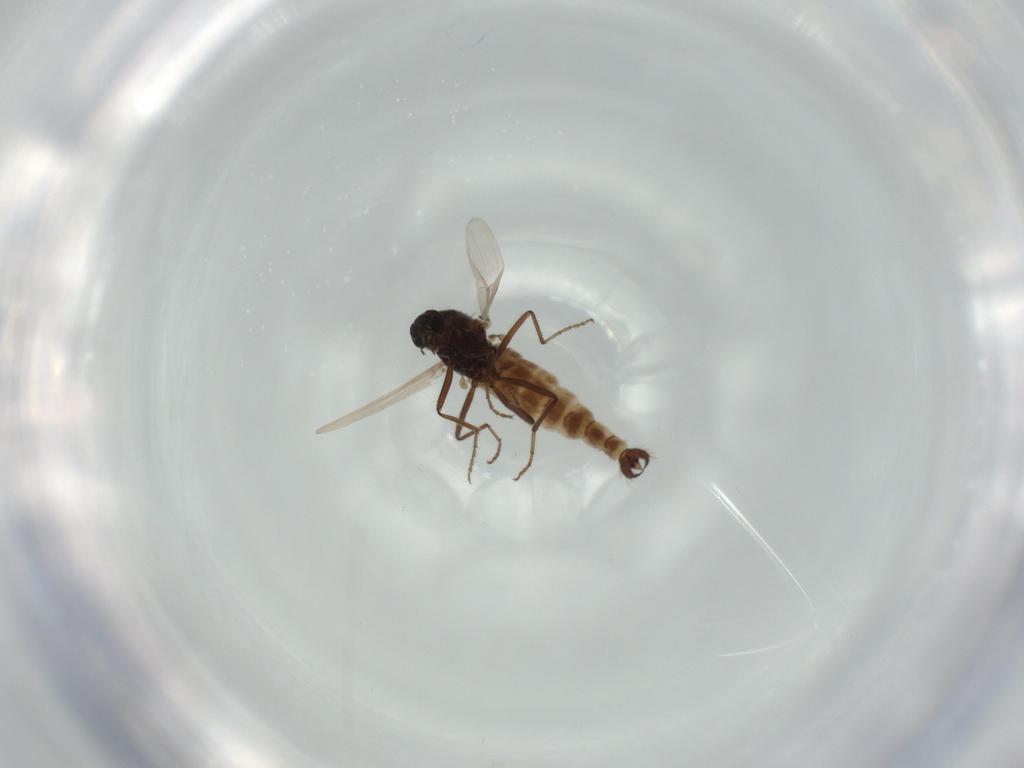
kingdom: Animalia
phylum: Arthropoda
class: Insecta
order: Diptera
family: Ceratopogonidae
